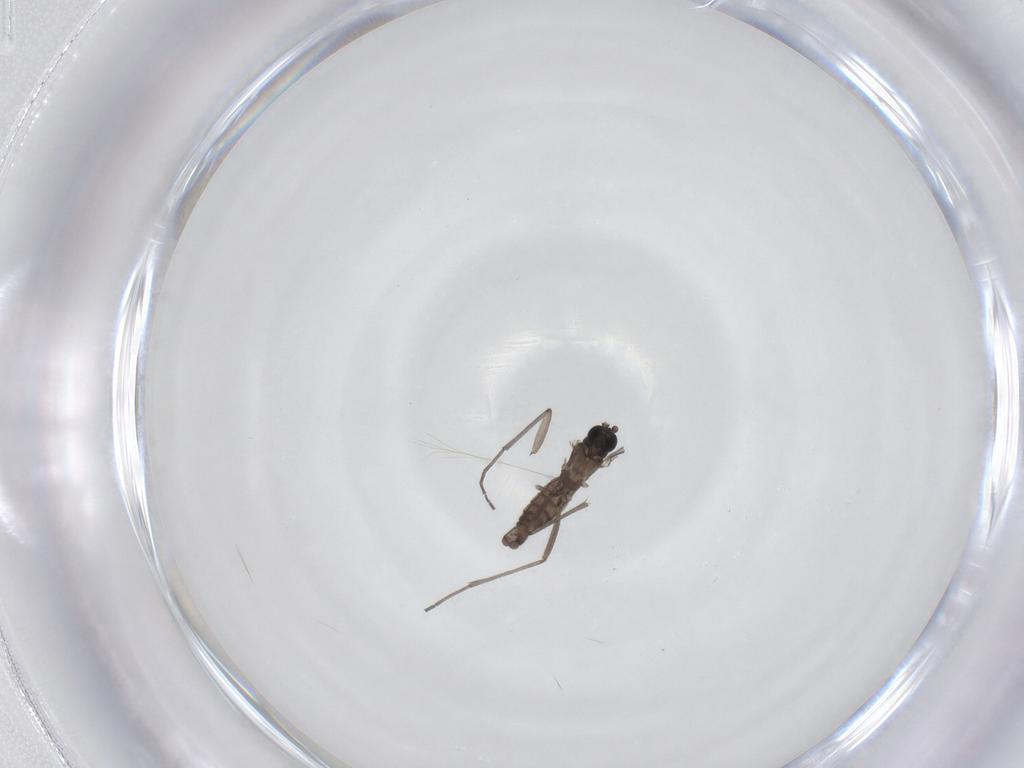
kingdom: Animalia
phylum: Arthropoda
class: Insecta
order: Diptera
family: Sciaridae
